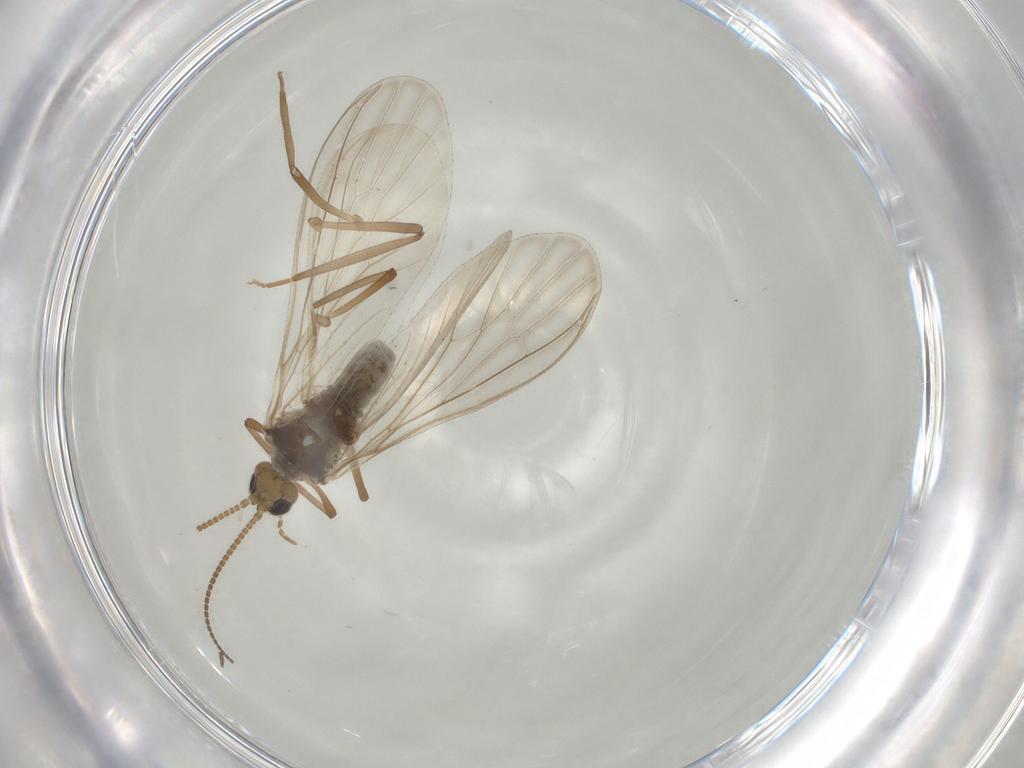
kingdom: Animalia
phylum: Arthropoda
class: Insecta
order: Neuroptera
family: Coniopterygidae
